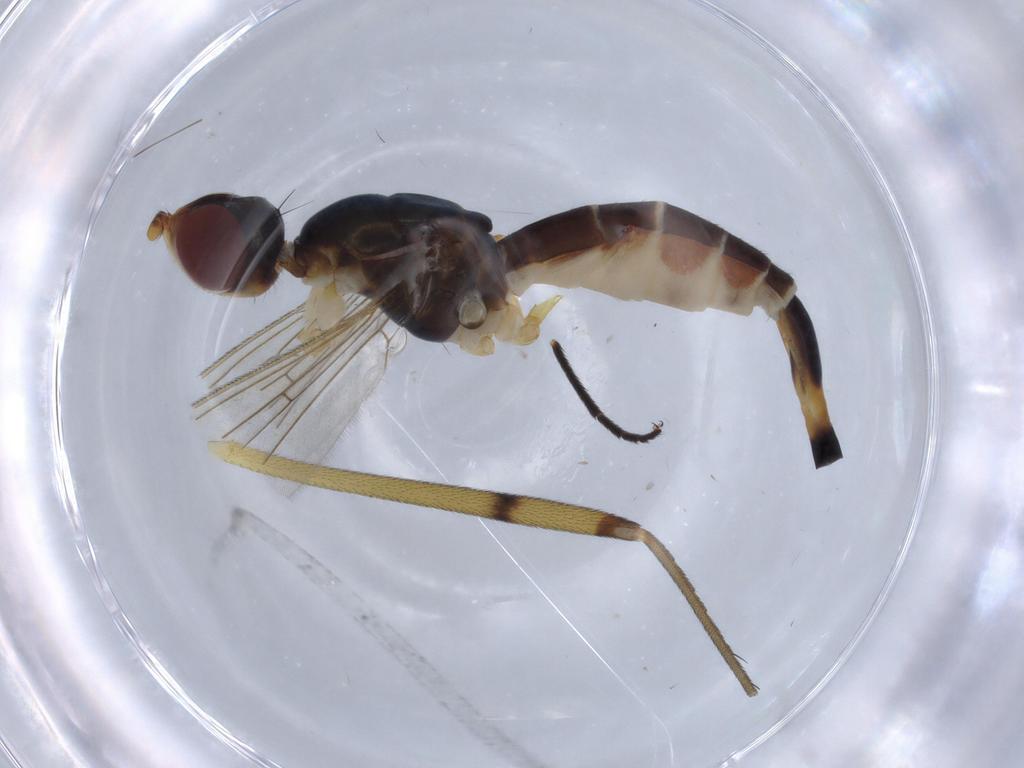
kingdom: Animalia
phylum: Arthropoda
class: Insecta
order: Diptera
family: Micropezidae
